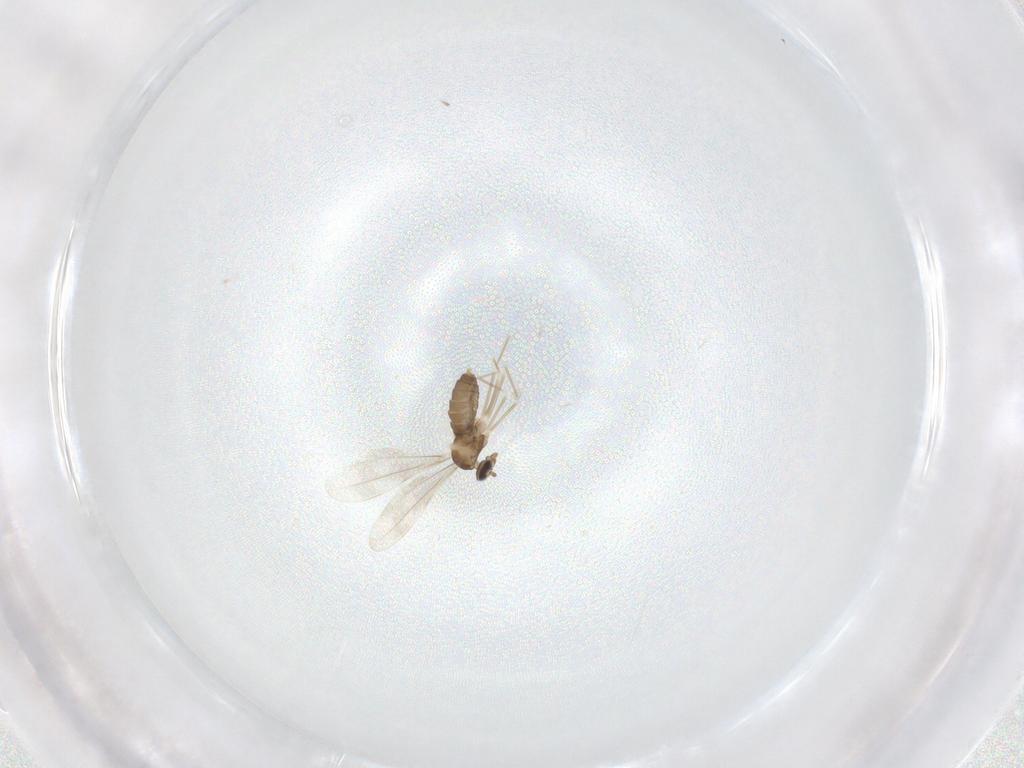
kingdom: Animalia
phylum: Arthropoda
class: Insecta
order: Diptera
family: Cecidomyiidae
